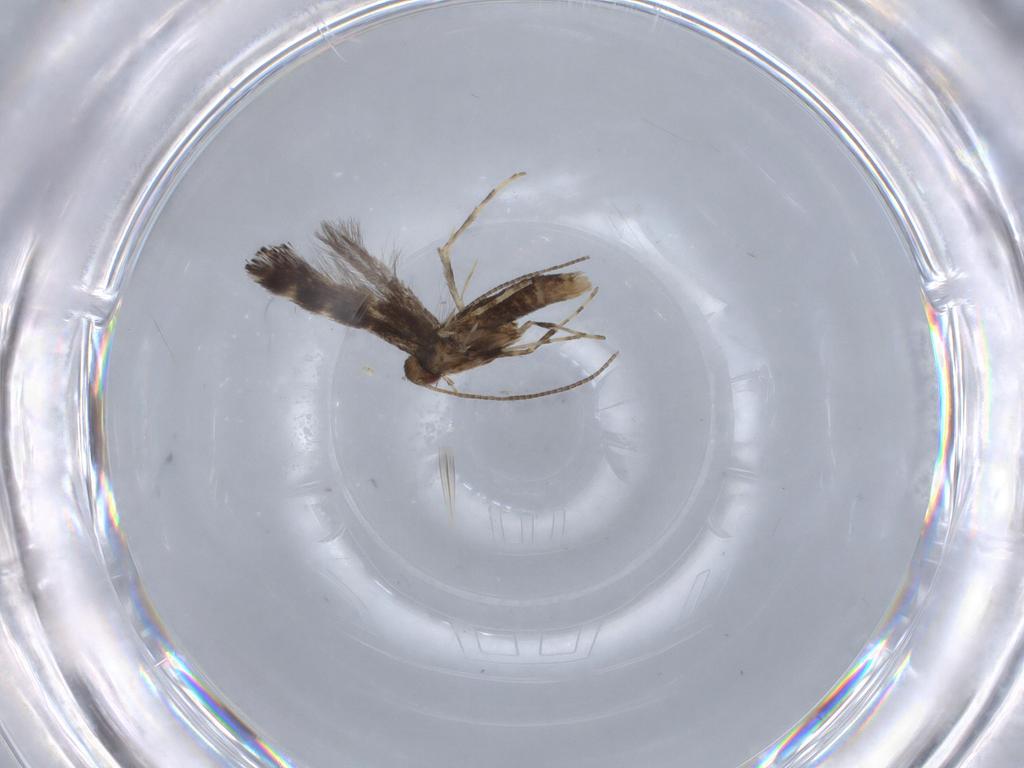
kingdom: Animalia
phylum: Arthropoda
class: Insecta
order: Lepidoptera
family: Gracillariidae
